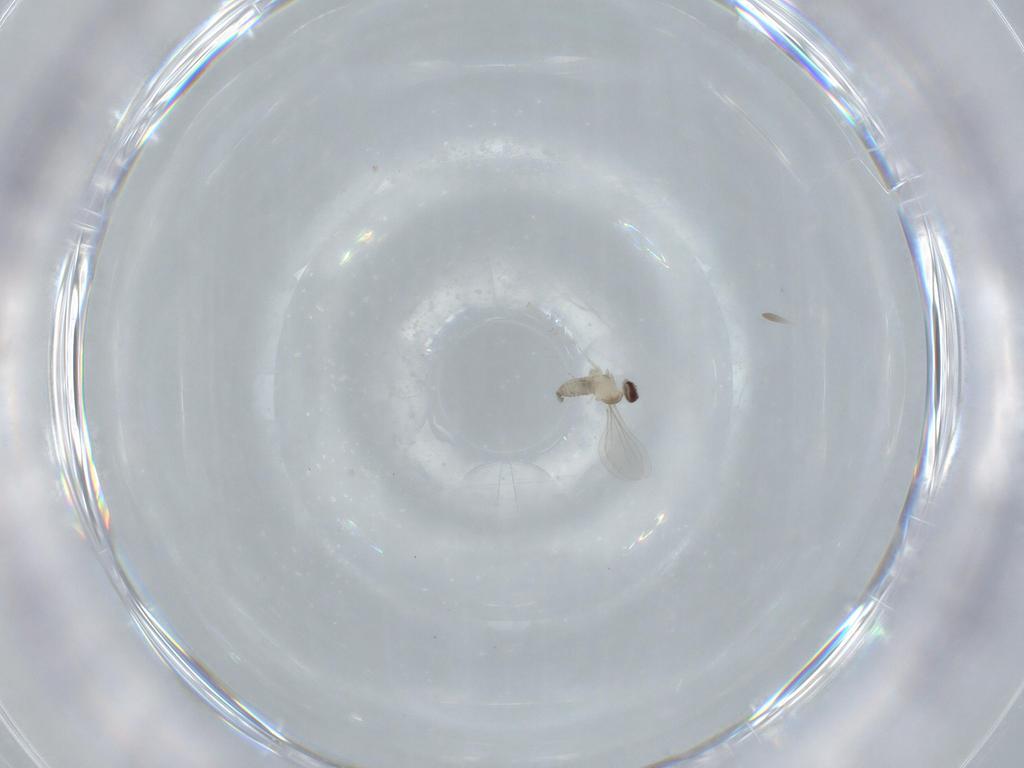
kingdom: Animalia
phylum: Arthropoda
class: Insecta
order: Diptera
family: Cecidomyiidae
